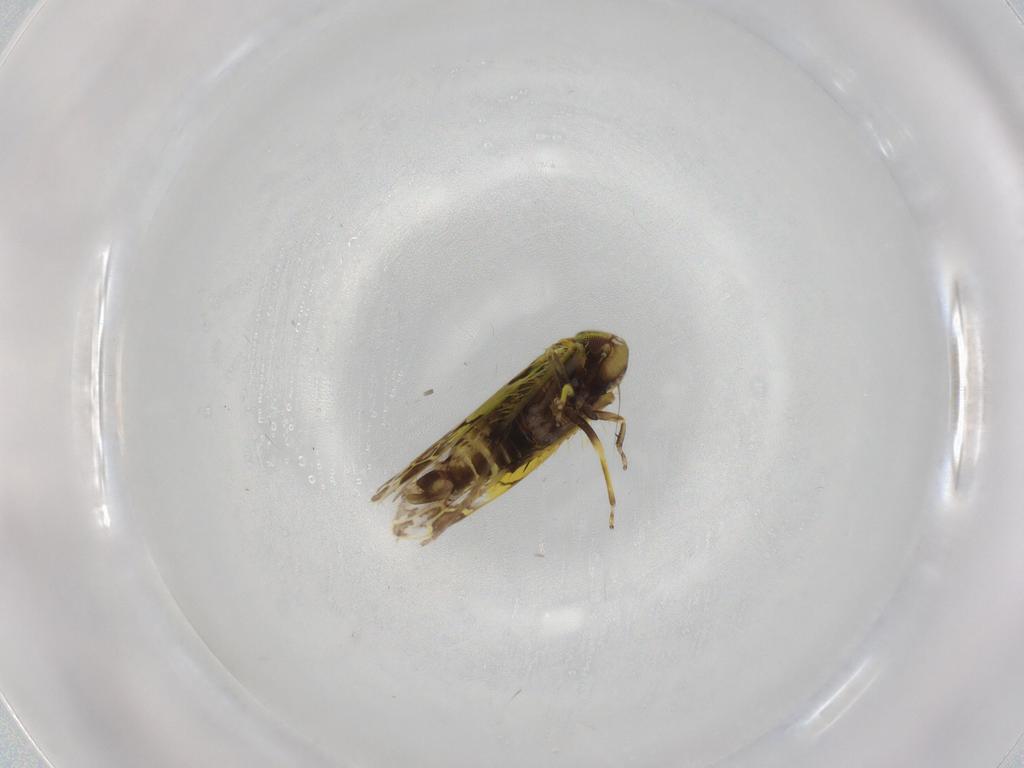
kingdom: Animalia
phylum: Arthropoda
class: Insecta
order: Hemiptera
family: Cicadellidae
